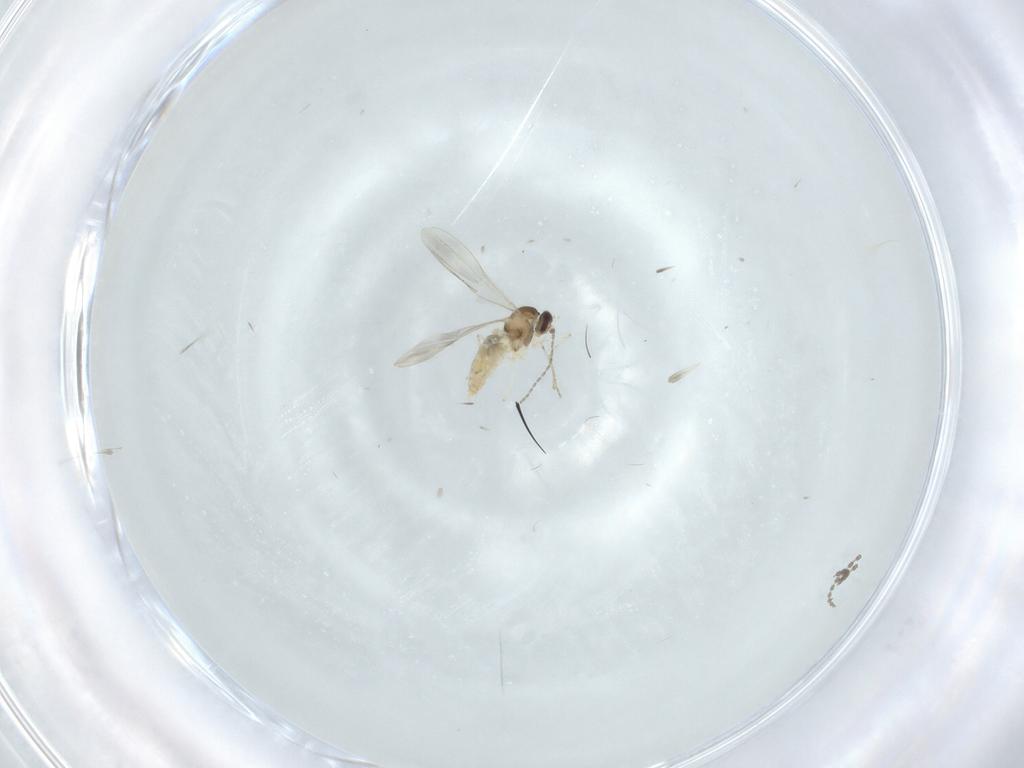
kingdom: Animalia
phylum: Arthropoda
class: Insecta
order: Diptera
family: Cecidomyiidae
